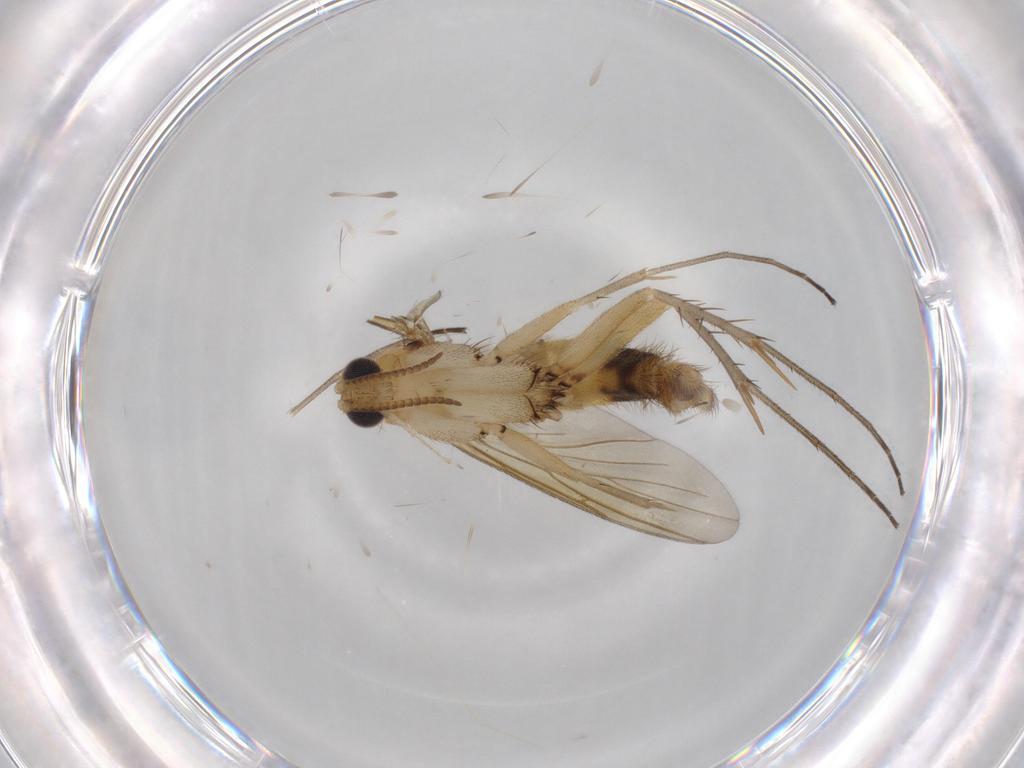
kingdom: Animalia
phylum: Arthropoda
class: Insecta
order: Diptera
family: Mycetophilidae
